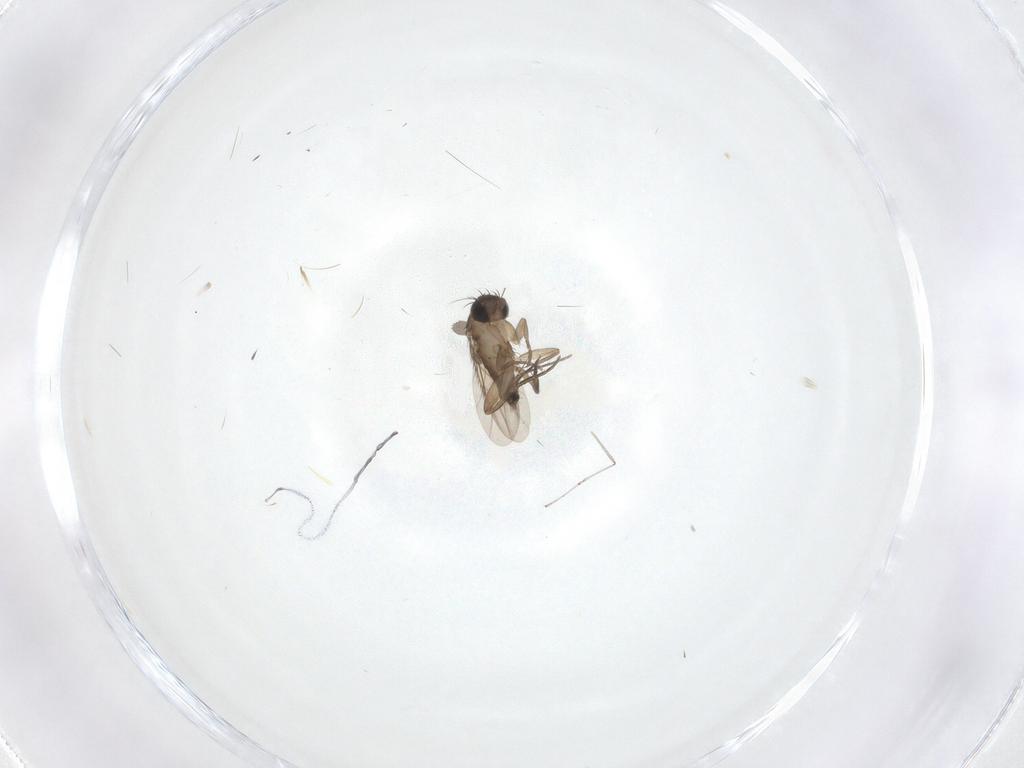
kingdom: Animalia
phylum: Arthropoda
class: Insecta
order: Diptera
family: Phoridae
